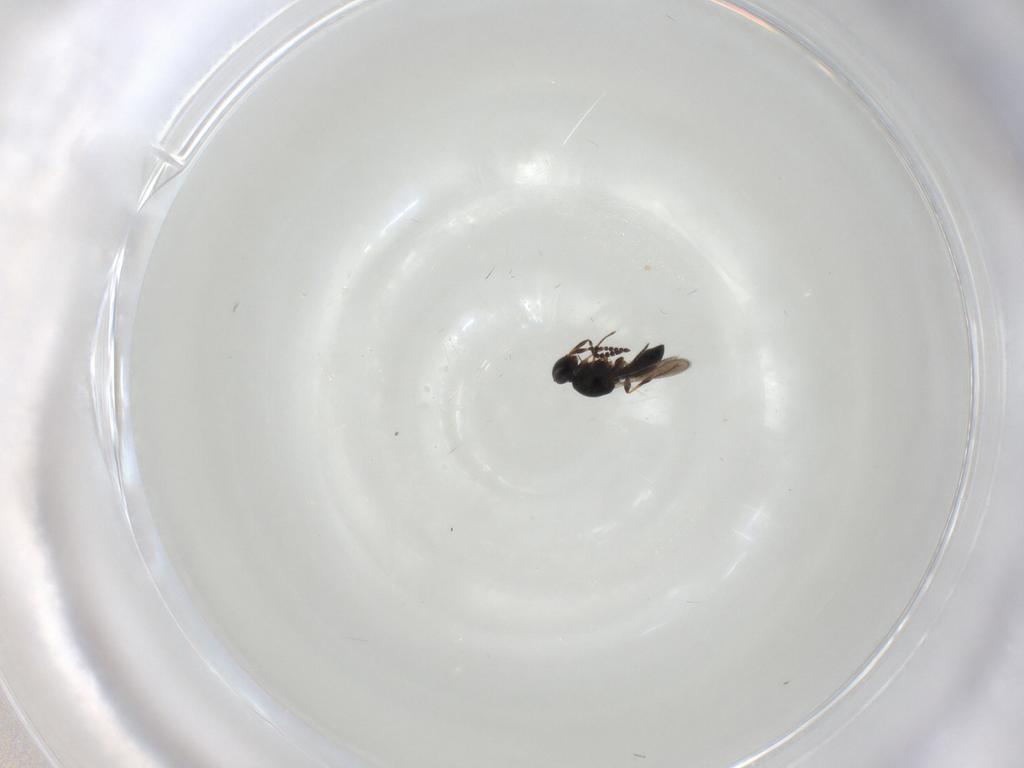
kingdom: Animalia
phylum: Arthropoda
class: Insecta
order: Hymenoptera
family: Platygastridae
